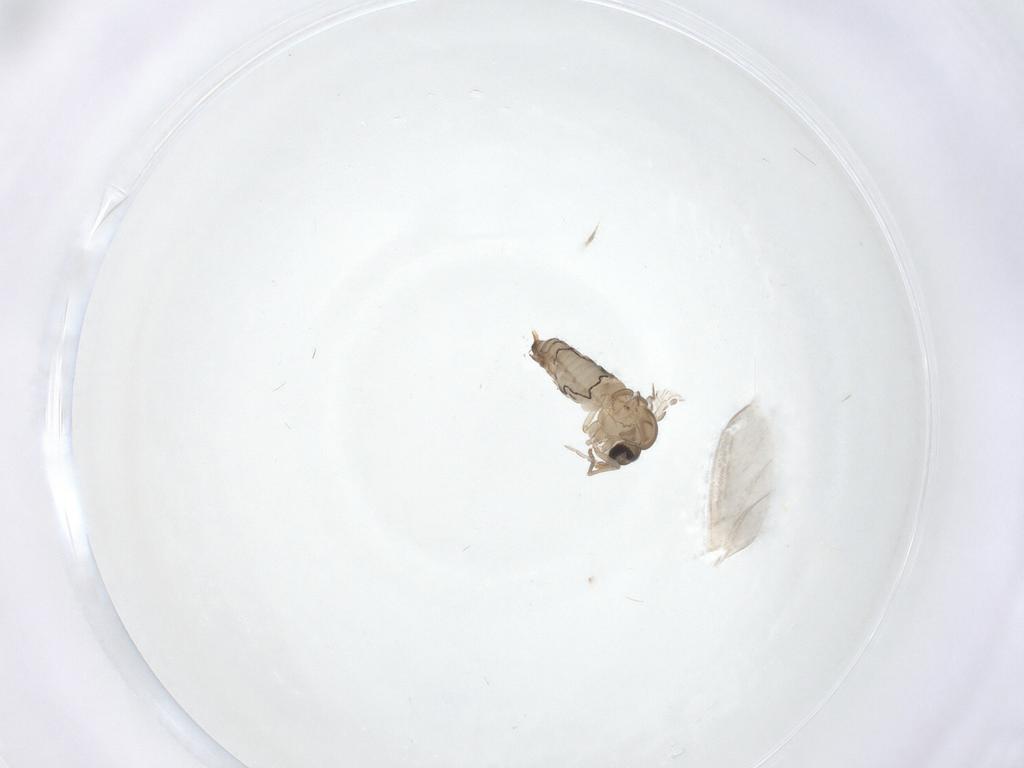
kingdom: Animalia
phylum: Arthropoda
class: Insecta
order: Diptera
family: Psychodidae
